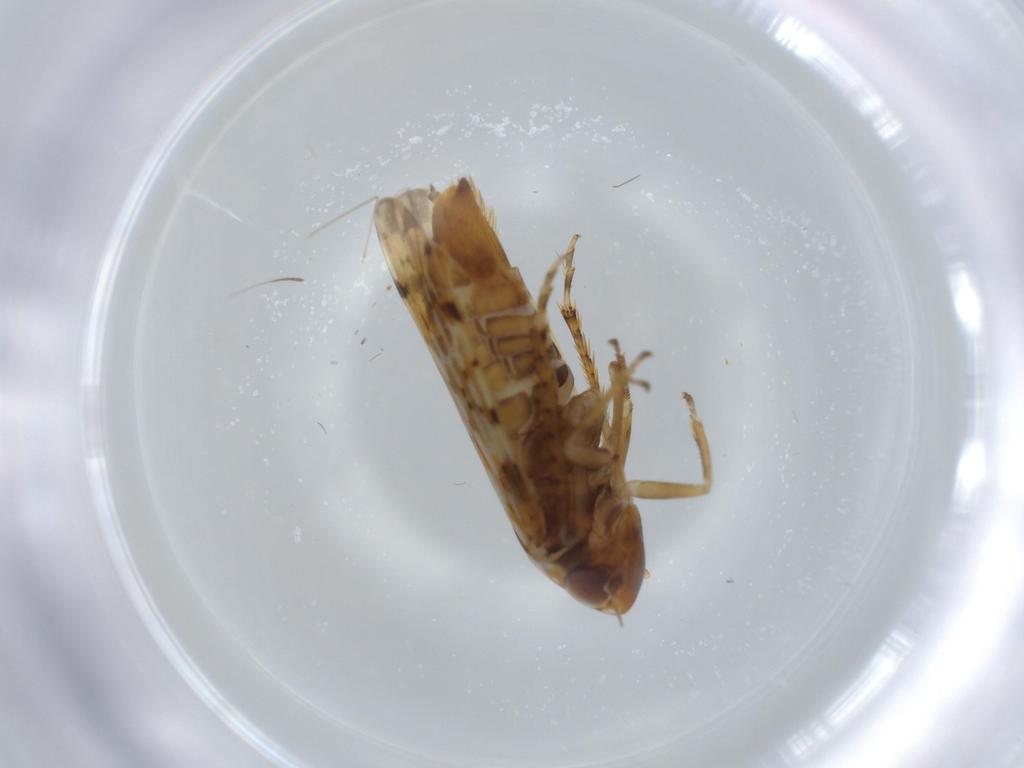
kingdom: Animalia
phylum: Arthropoda
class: Insecta
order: Hemiptera
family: Cicadellidae
